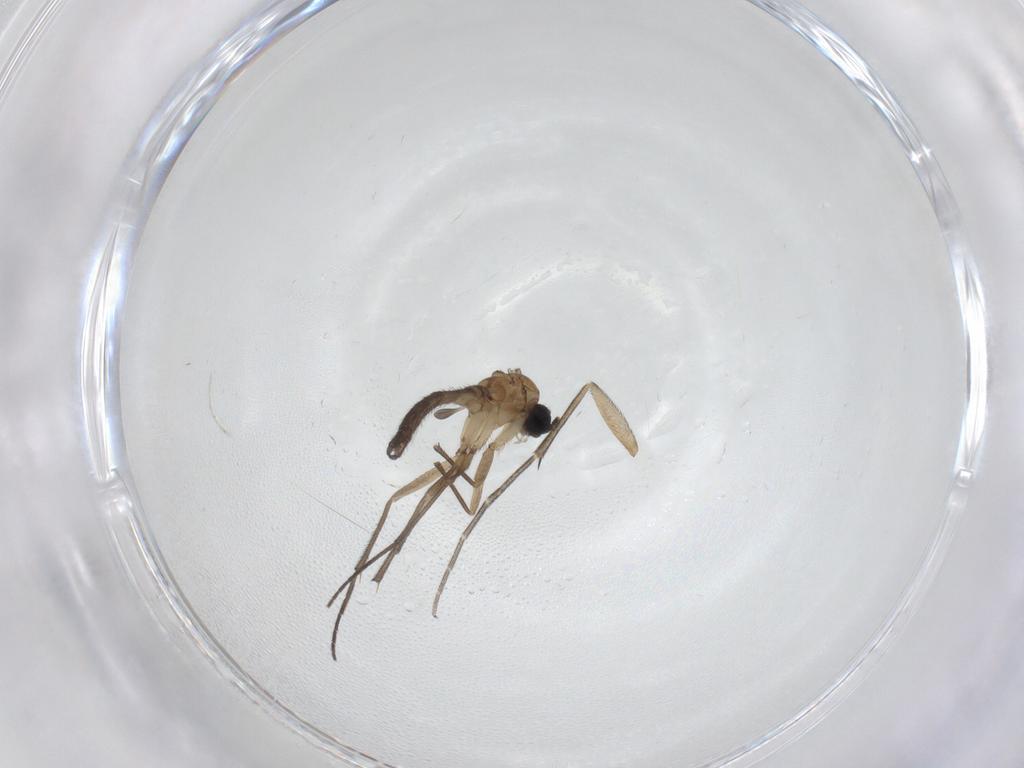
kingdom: Animalia
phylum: Arthropoda
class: Insecta
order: Diptera
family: Keroplatidae
